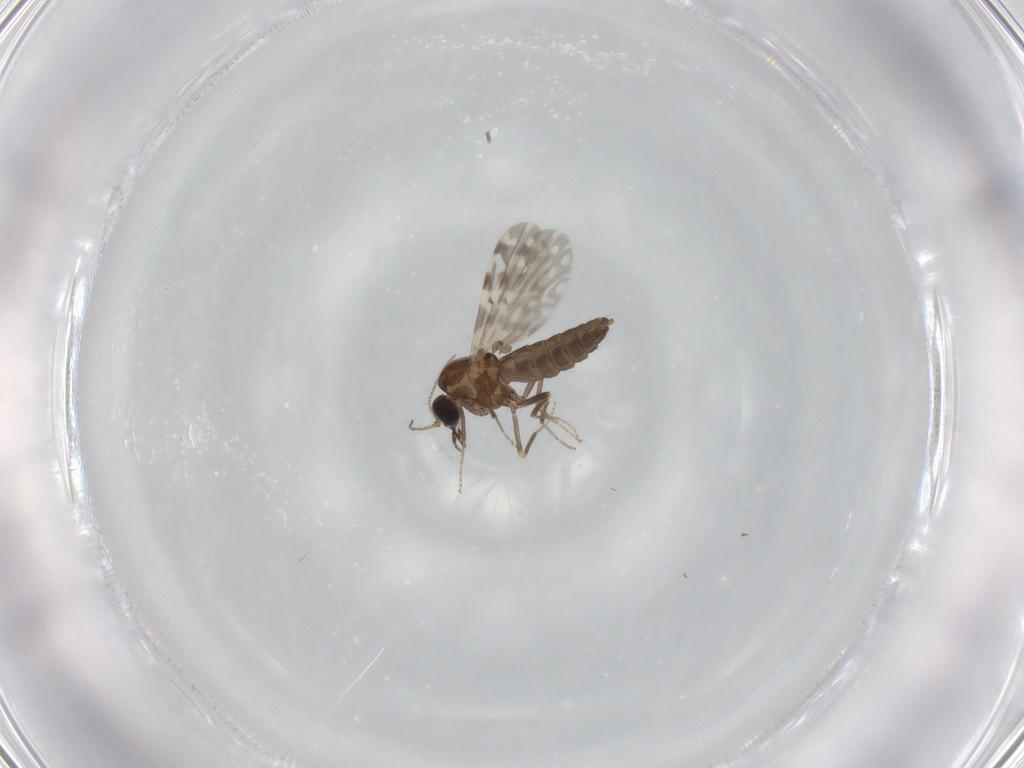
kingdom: Animalia
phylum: Arthropoda
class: Insecta
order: Diptera
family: Ceratopogonidae
